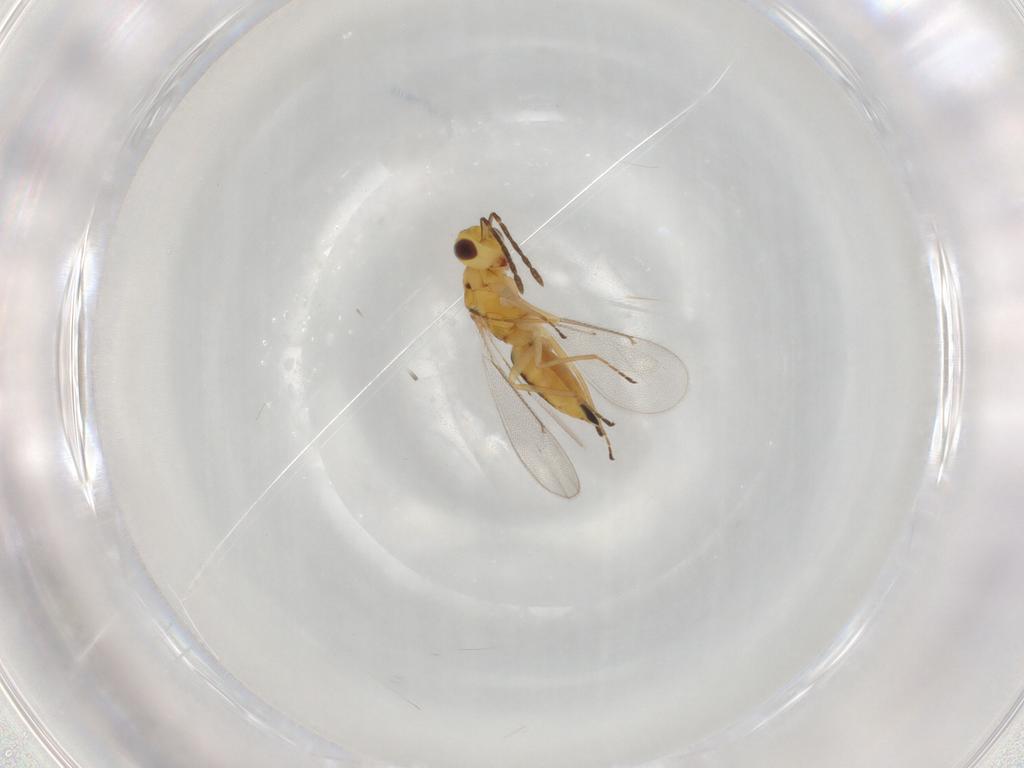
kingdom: Animalia
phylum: Arthropoda
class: Insecta
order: Hymenoptera
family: Eulophidae
